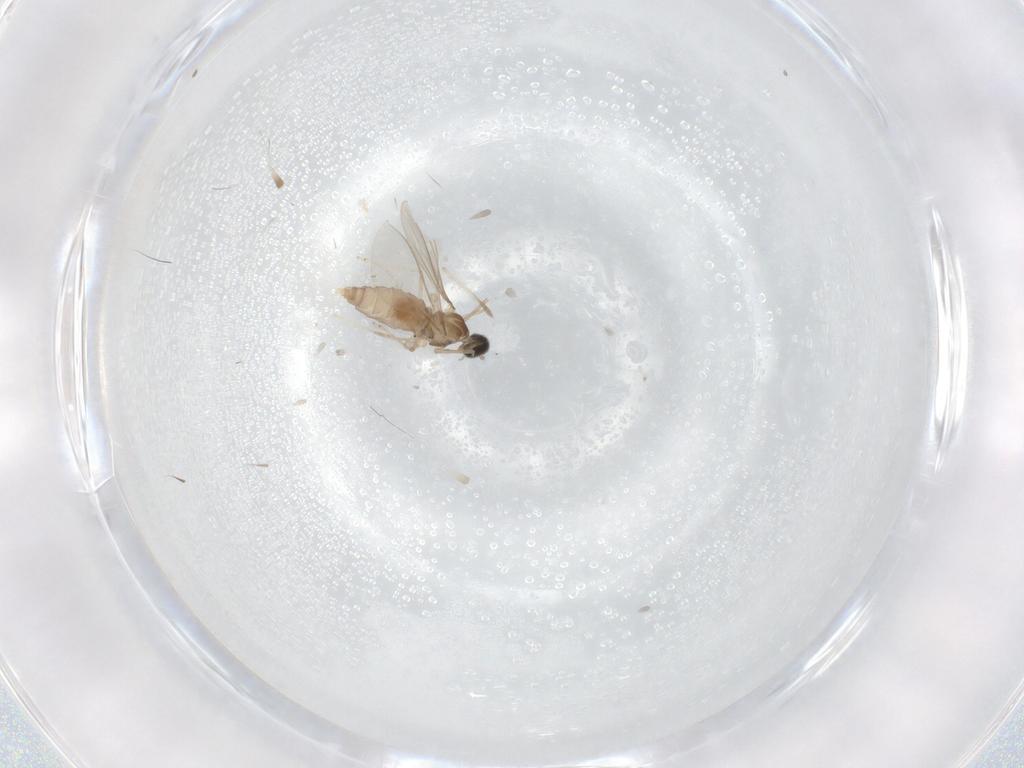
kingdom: Animalia
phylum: Arthropoda
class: Insecta
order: Diptera
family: Cecidomyiidae
